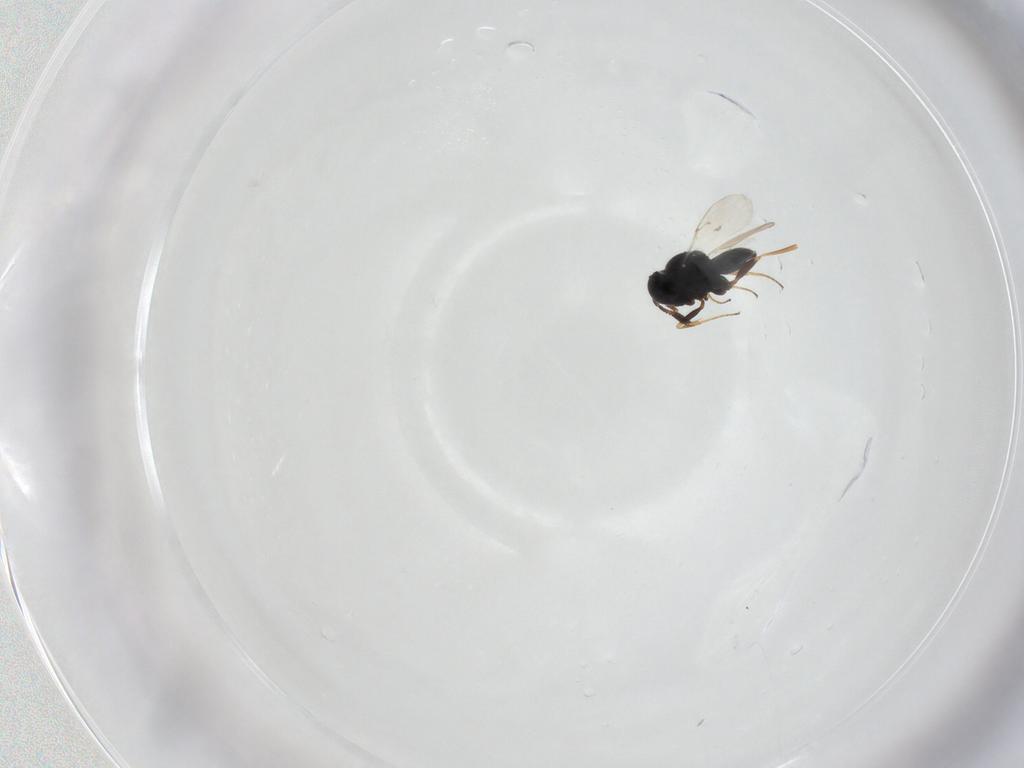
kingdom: Animalia
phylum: Arthropoda
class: Insecta
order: Hymenoptera
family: Scelionidae
